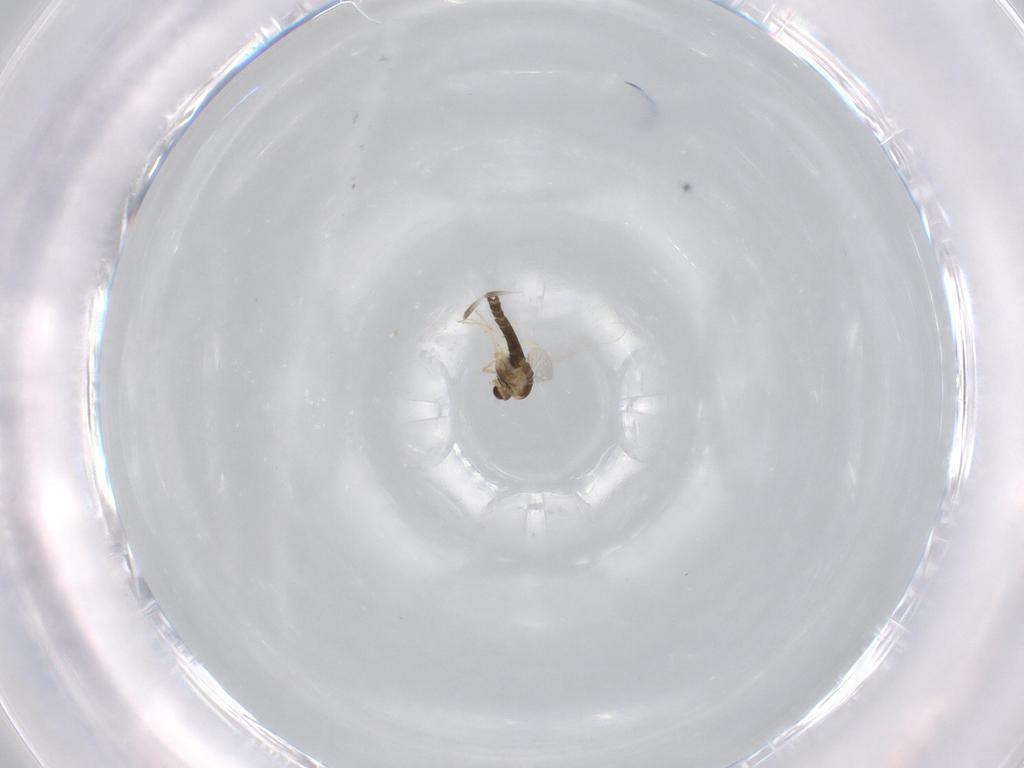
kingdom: Animalia
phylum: Arthropoda
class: Insecta
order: Diptera
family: Chironomidae
